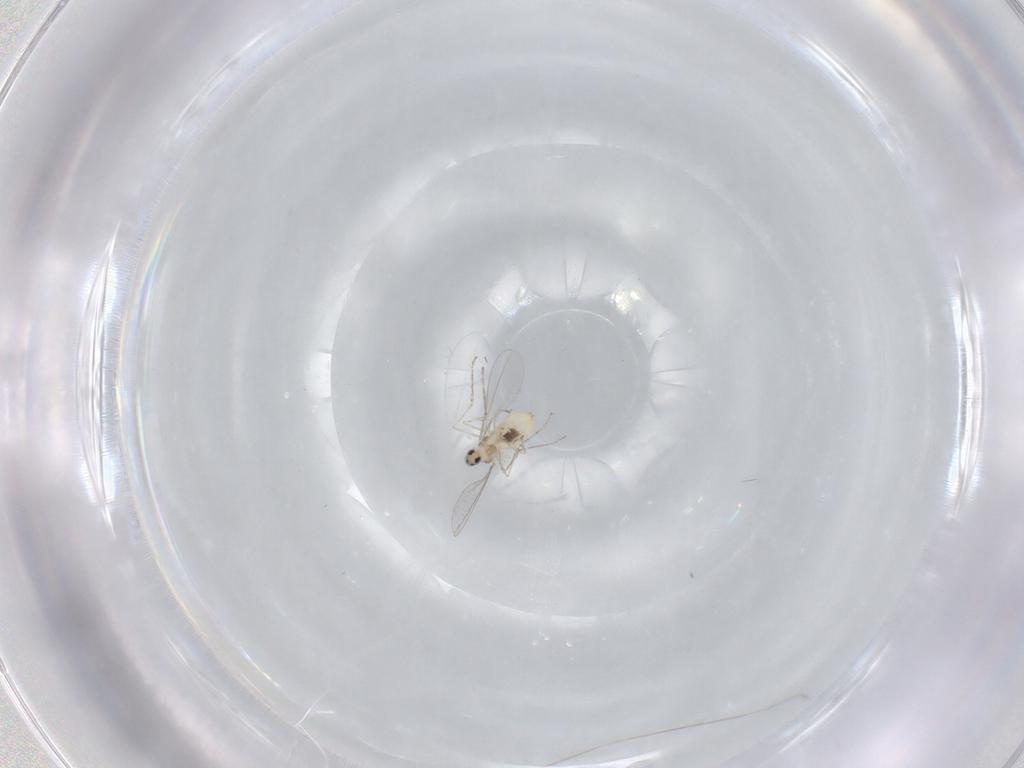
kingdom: Animalia
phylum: Arthropoda
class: Insecta
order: Diptera
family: Cecidomyiidae
